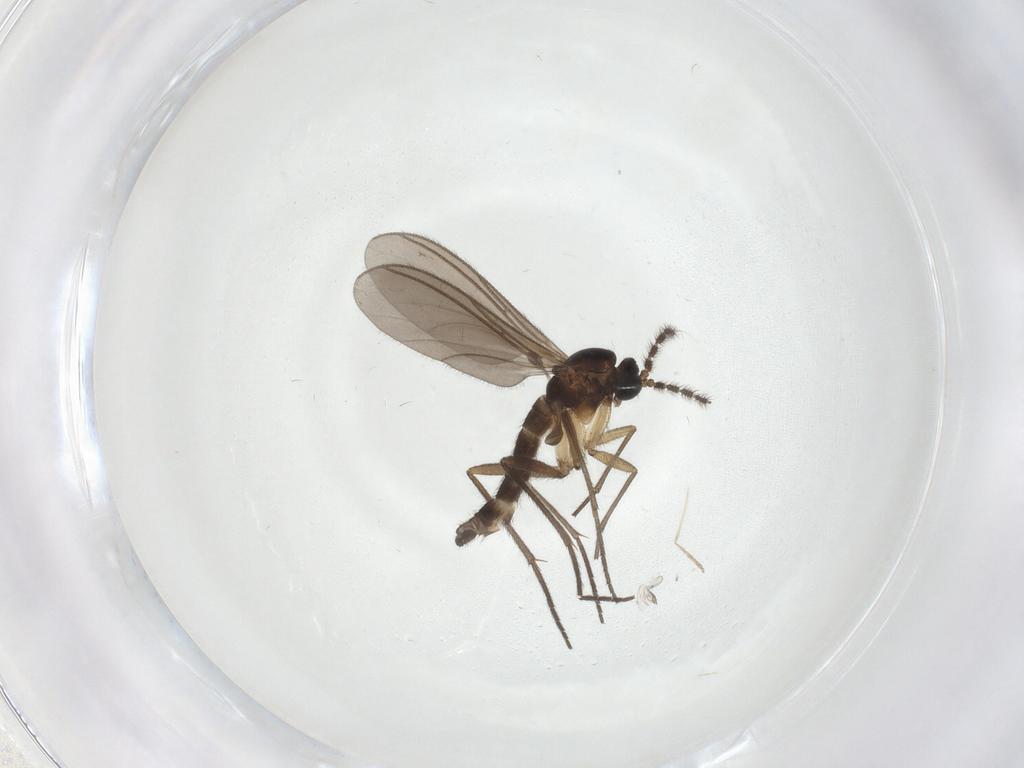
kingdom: Animalia
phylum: Arthropoda
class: Insecta
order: Diptera
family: Sciaridae
